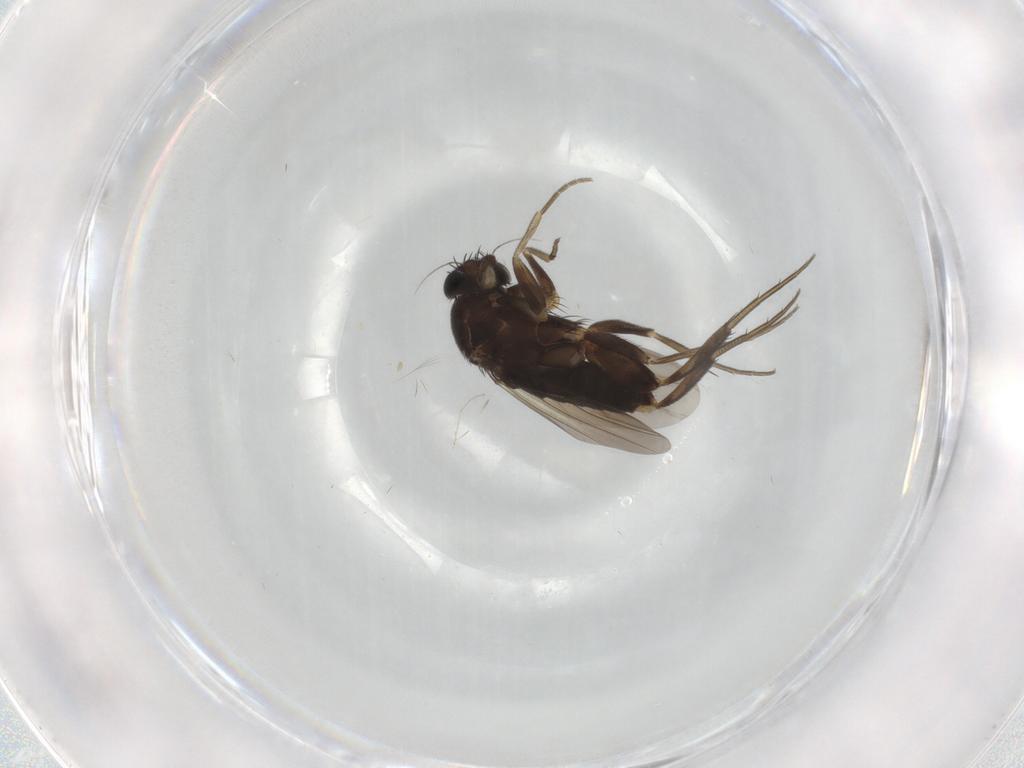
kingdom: Animalia
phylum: Arthropoda
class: Insecta
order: Diptera
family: Phoridae
